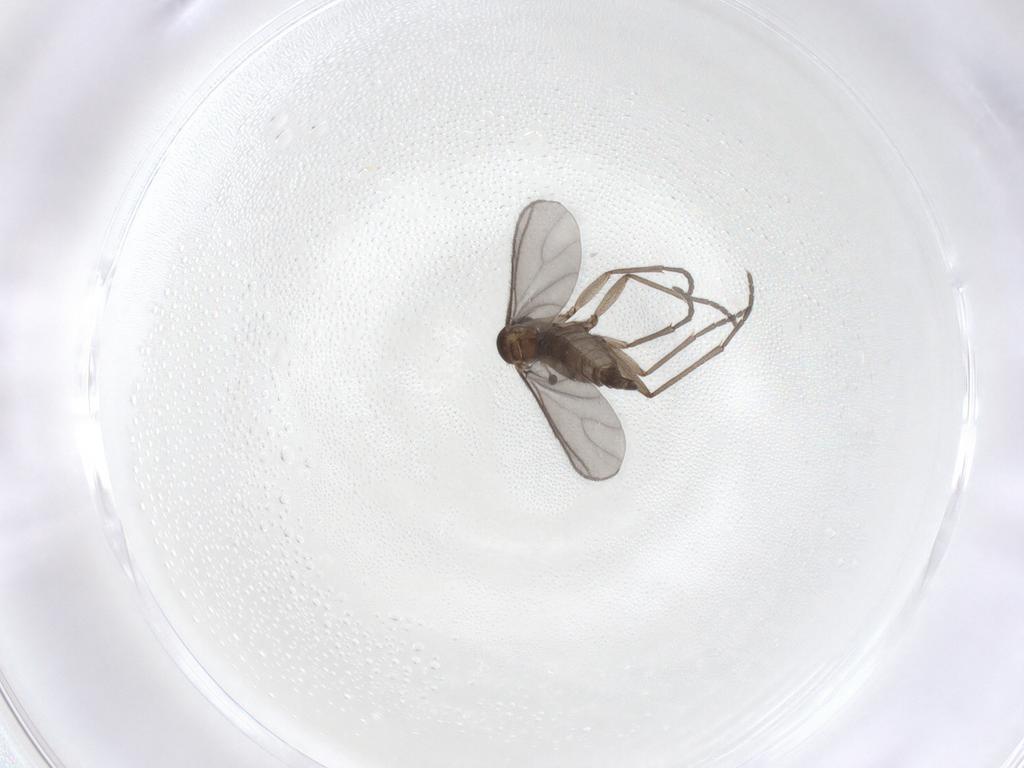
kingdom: Animalia
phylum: Arthropoda
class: Insecta
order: Diptera
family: Sciaridae
